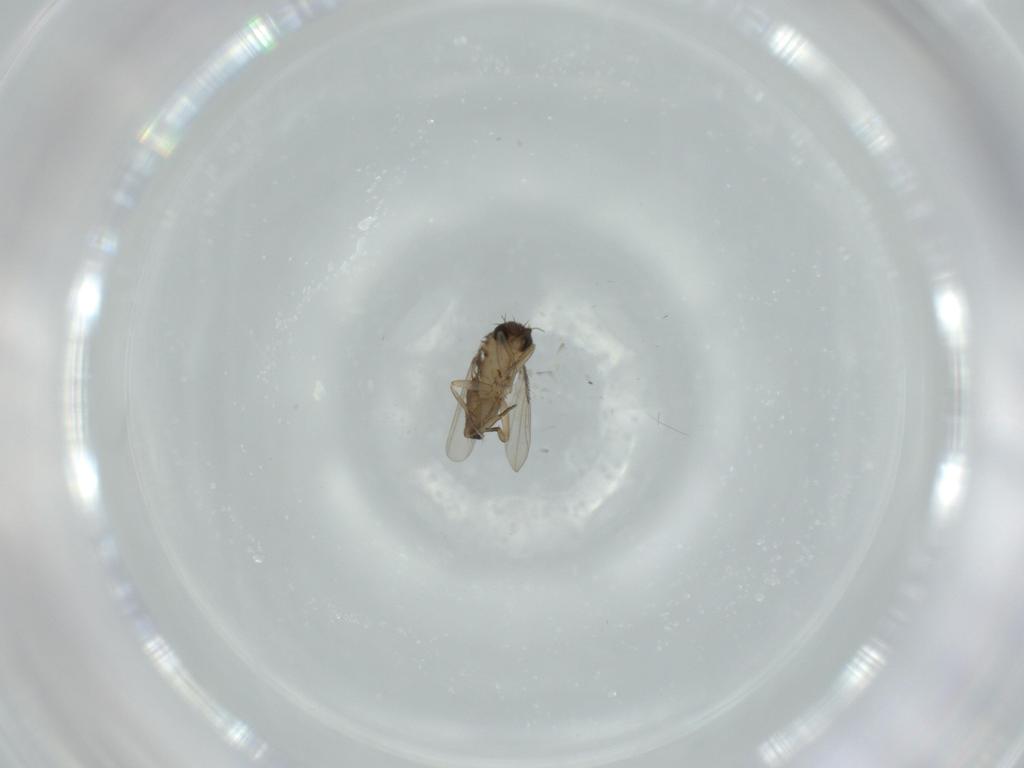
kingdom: Animalia
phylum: Arthropoda
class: Insecta
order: Diptera
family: Phoridae
